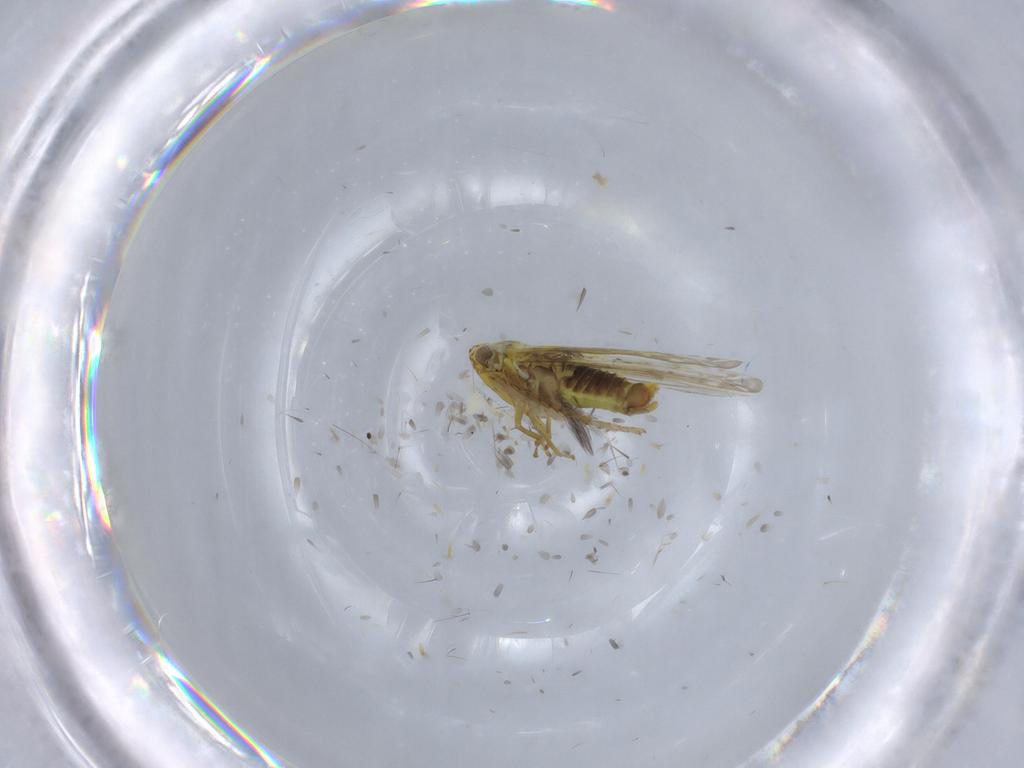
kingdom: Animalia
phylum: Arthropoda
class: Insecta
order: Hemiptera
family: Cicadellidae
